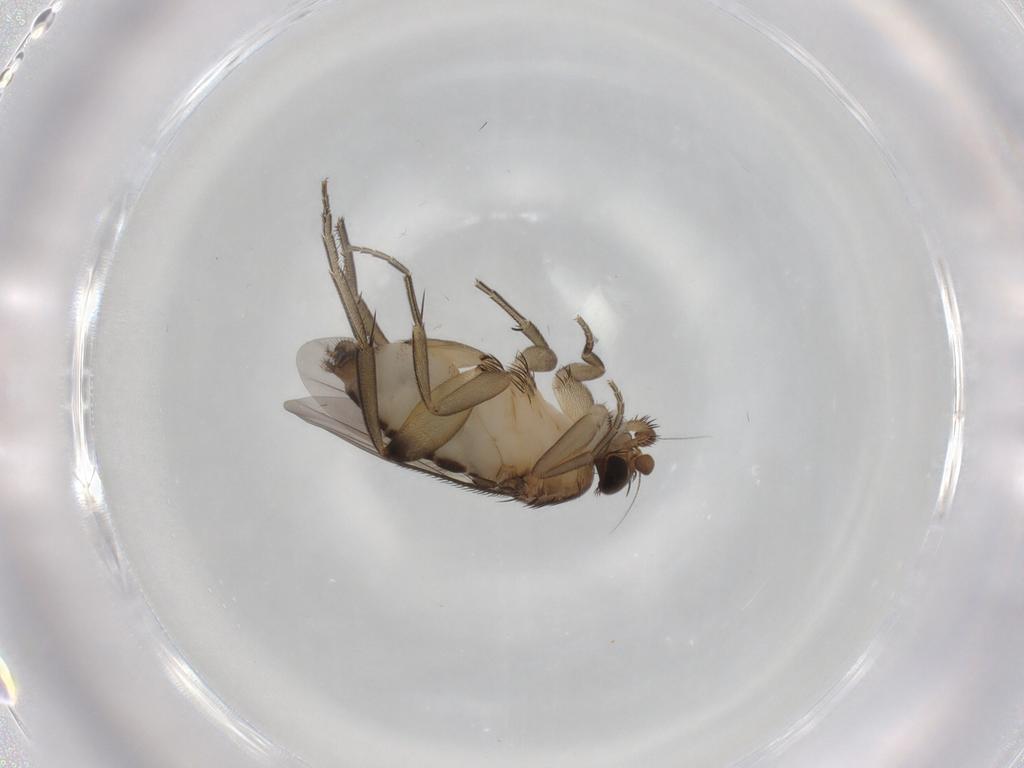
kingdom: Animalia
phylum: Arthropoda
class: Insecta
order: Diptera
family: Phoridae
